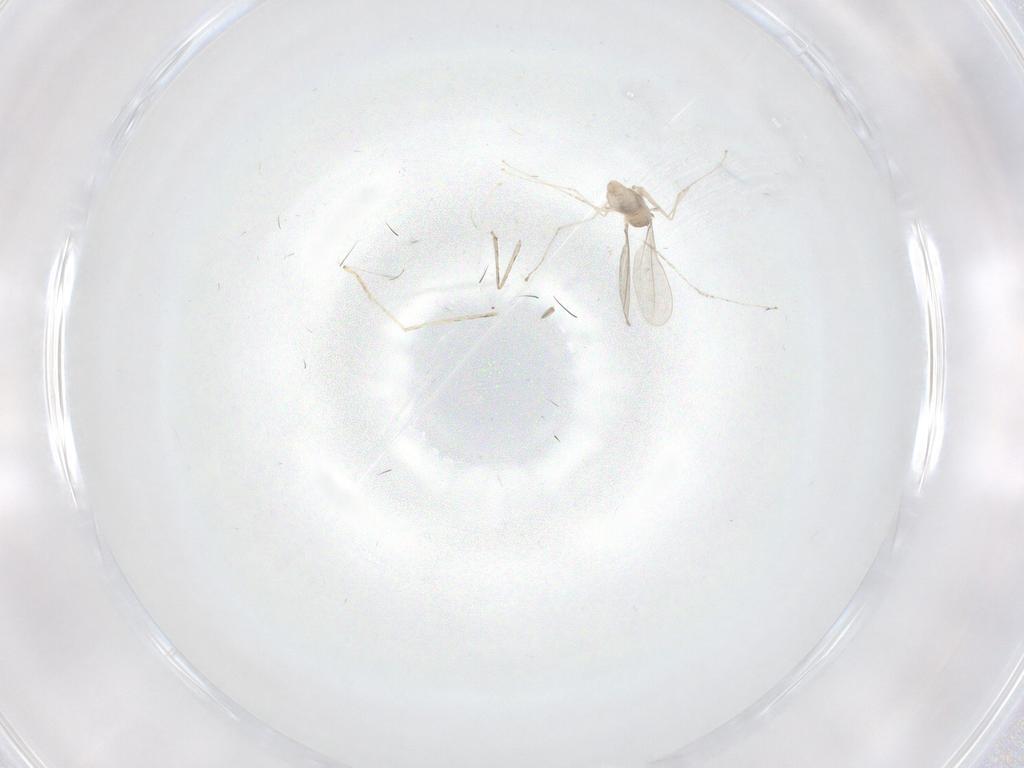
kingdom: Animalia
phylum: Arthropoda
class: Insecta
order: Diptera
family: Cecidomyiidae
